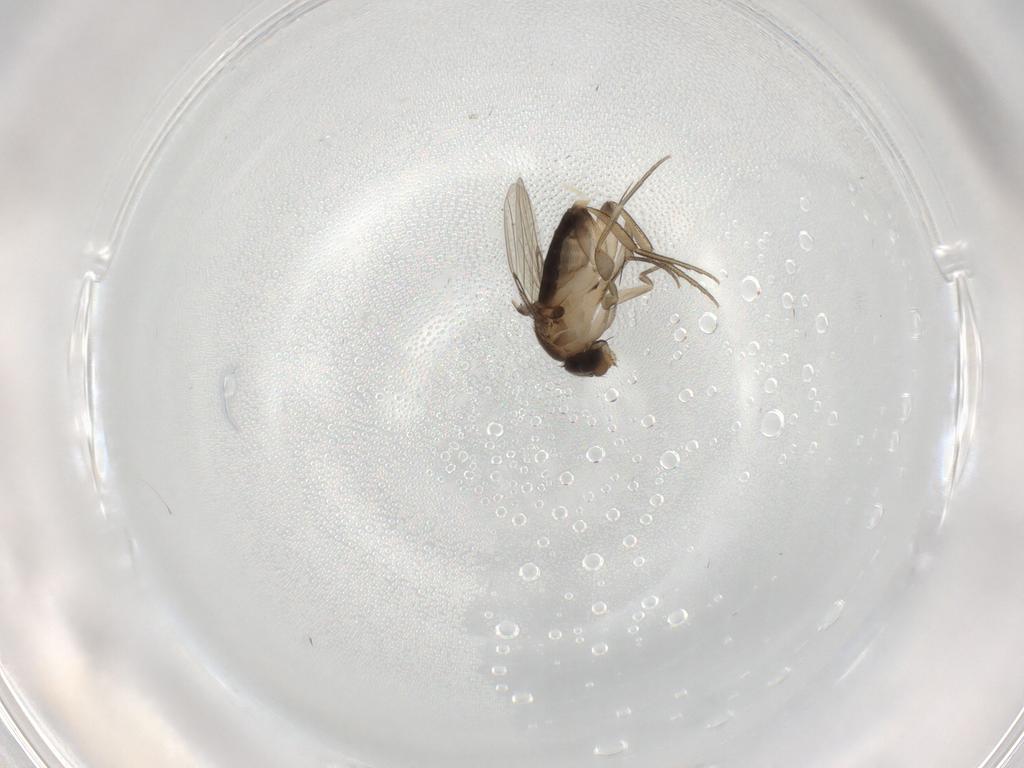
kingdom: Animalia
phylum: Arthropoda
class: Insecta
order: Diptera
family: Phoridae
